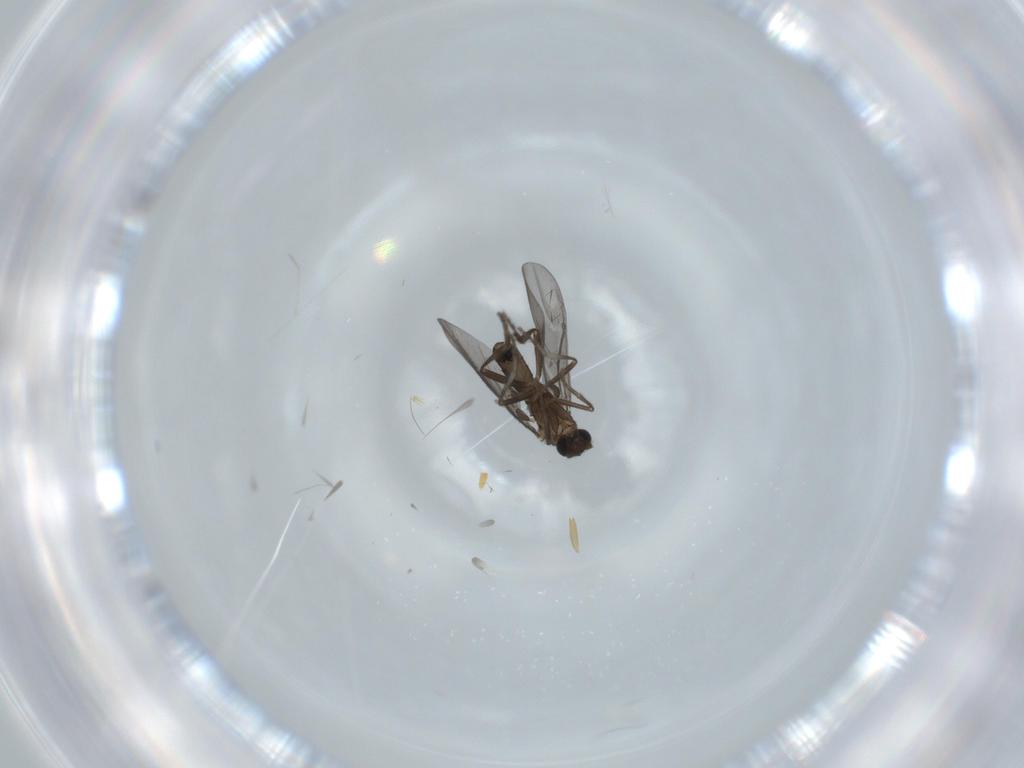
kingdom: Animalia
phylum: Arthropoda
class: Insecta
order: Diptera
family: Phoridae
